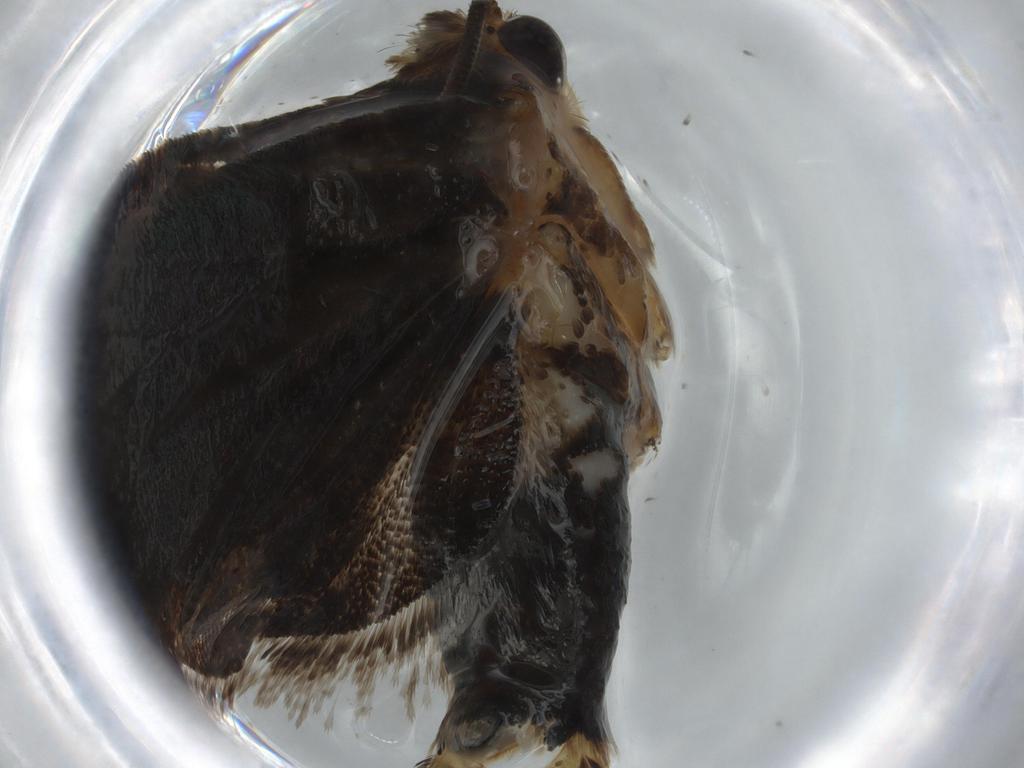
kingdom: Animalia
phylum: Arthropoda
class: Insecta
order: Lepidoptera
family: Tortricidae
